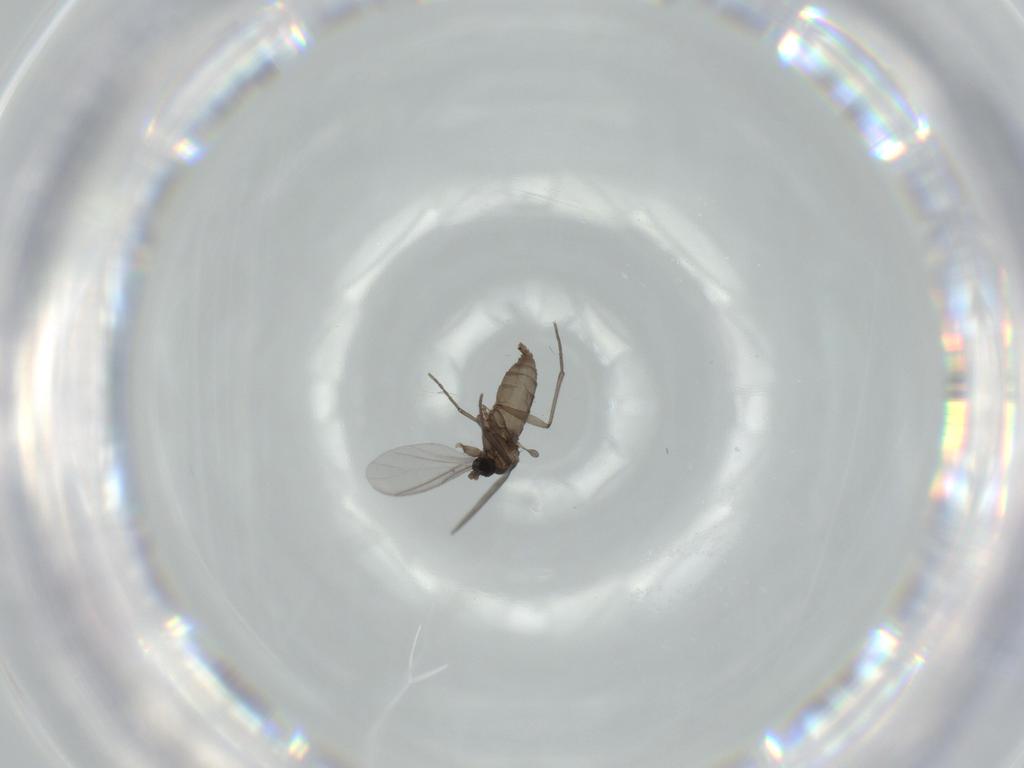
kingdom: Animalia
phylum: Arthropoda
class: Insecta
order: Diptera
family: Sciaridae
